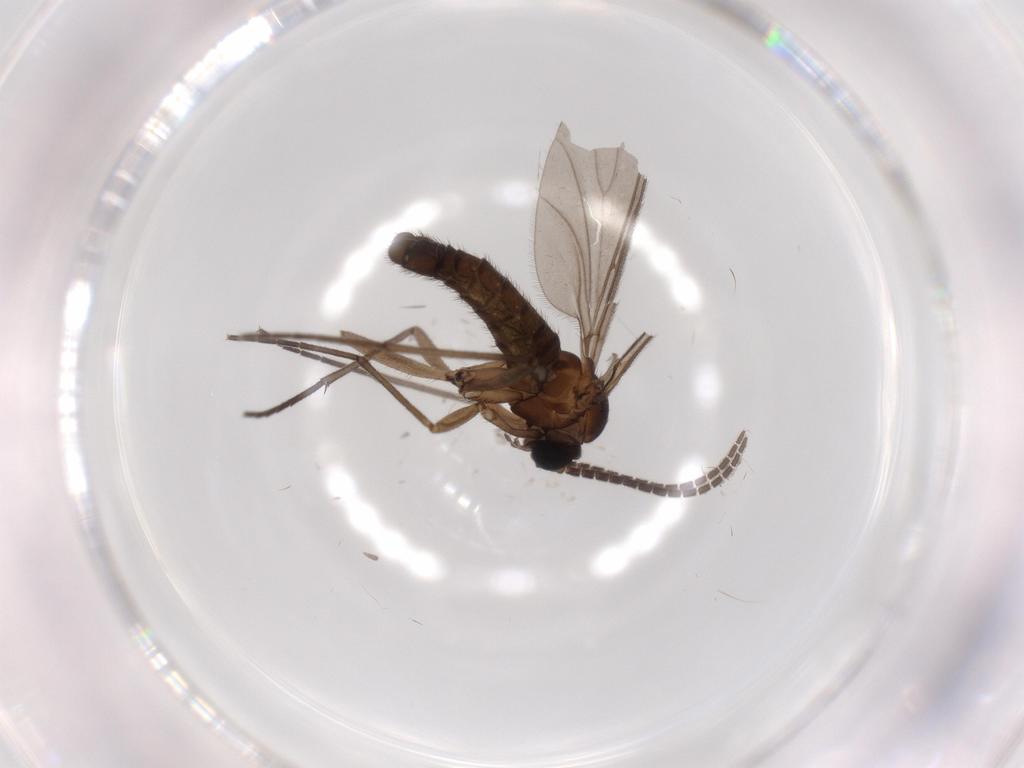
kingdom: Animalia
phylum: Arthropoda
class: Insecta
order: Diptera
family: Sciaridae
